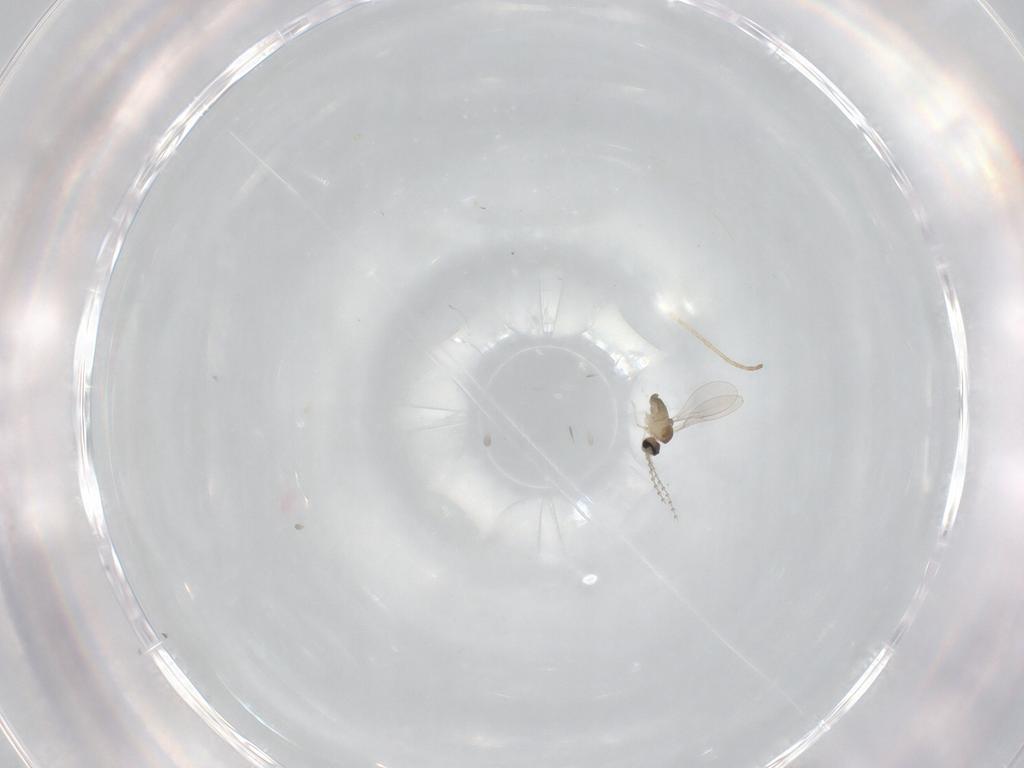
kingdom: Animalia
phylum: Arthropoda
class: Insecta
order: Diptera
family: Cecidomyiidae
